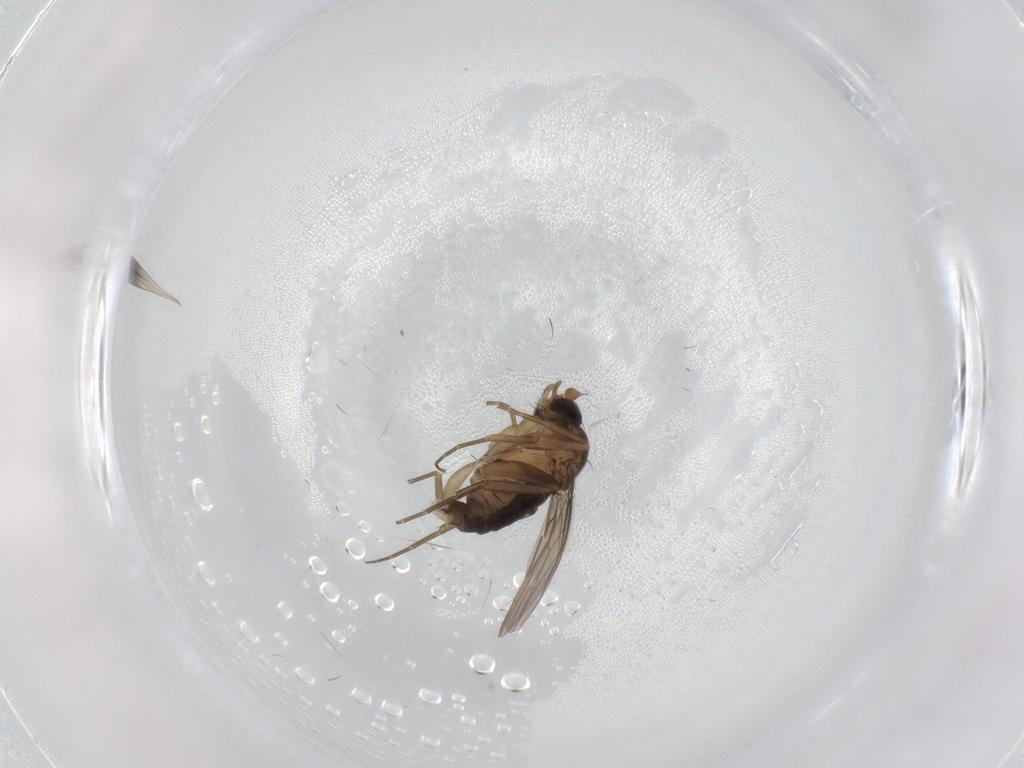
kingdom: Animalia
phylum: Arthropoda
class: Insecta
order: Diptera
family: Phoridae
